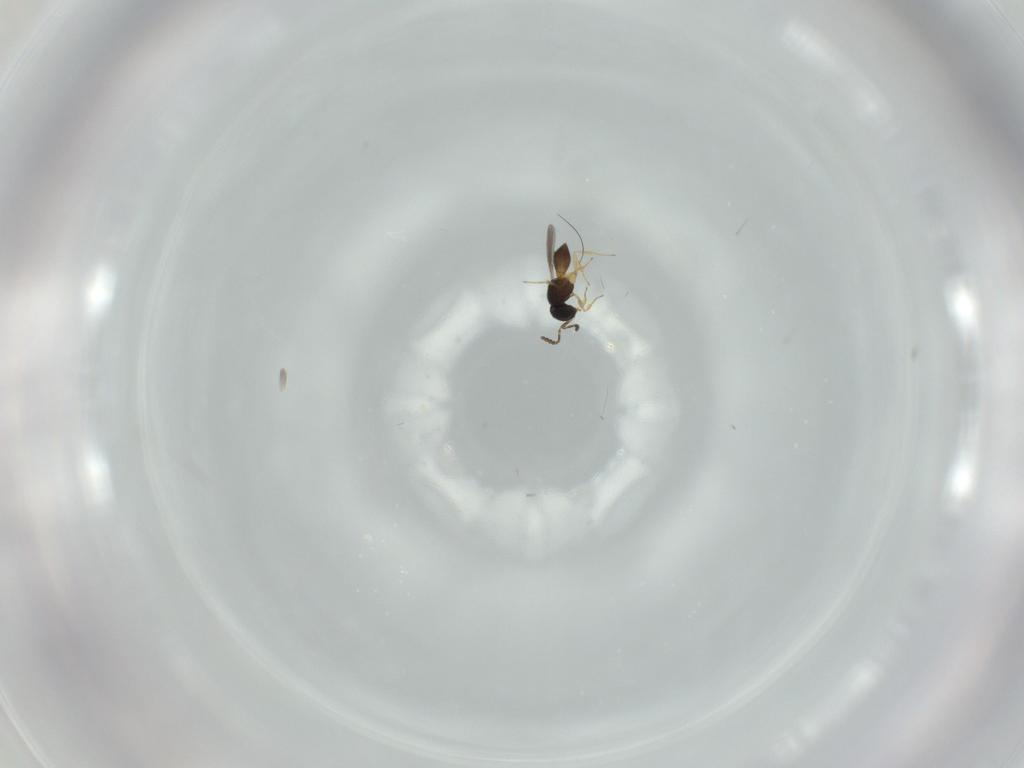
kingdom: Animalia
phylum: Arthropoda
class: Insecta
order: Hymenoptera
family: Scelionidae
